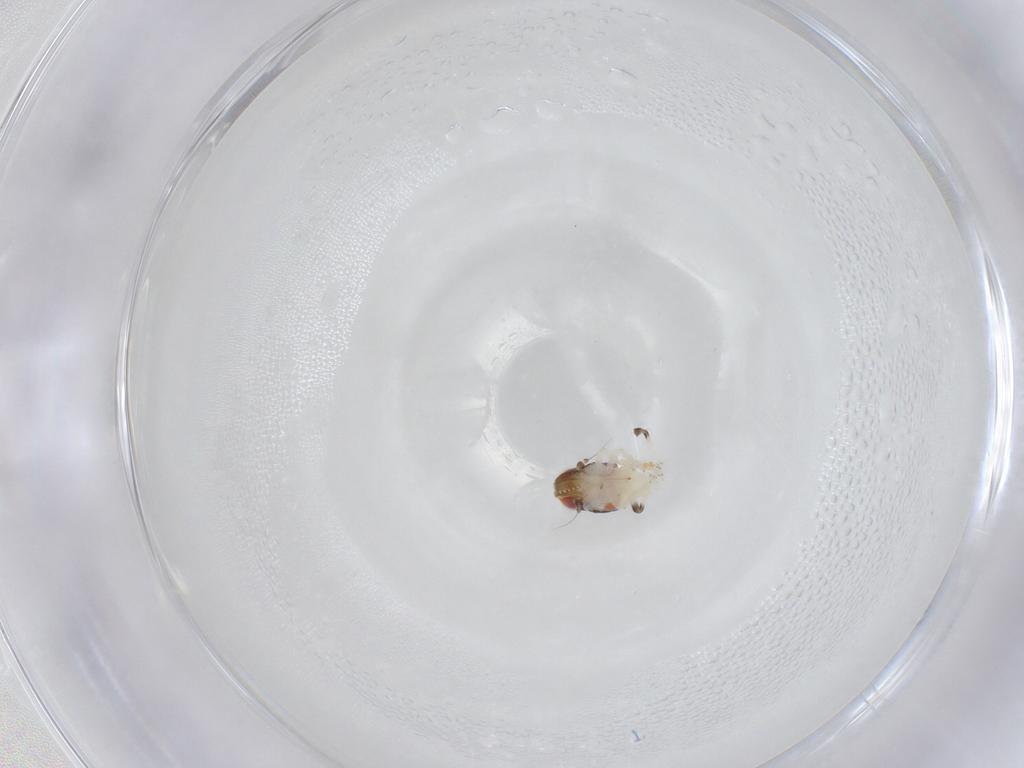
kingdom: Animalia
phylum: Arthropoda
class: Insecta
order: Hemiptera
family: Nogodinidae
